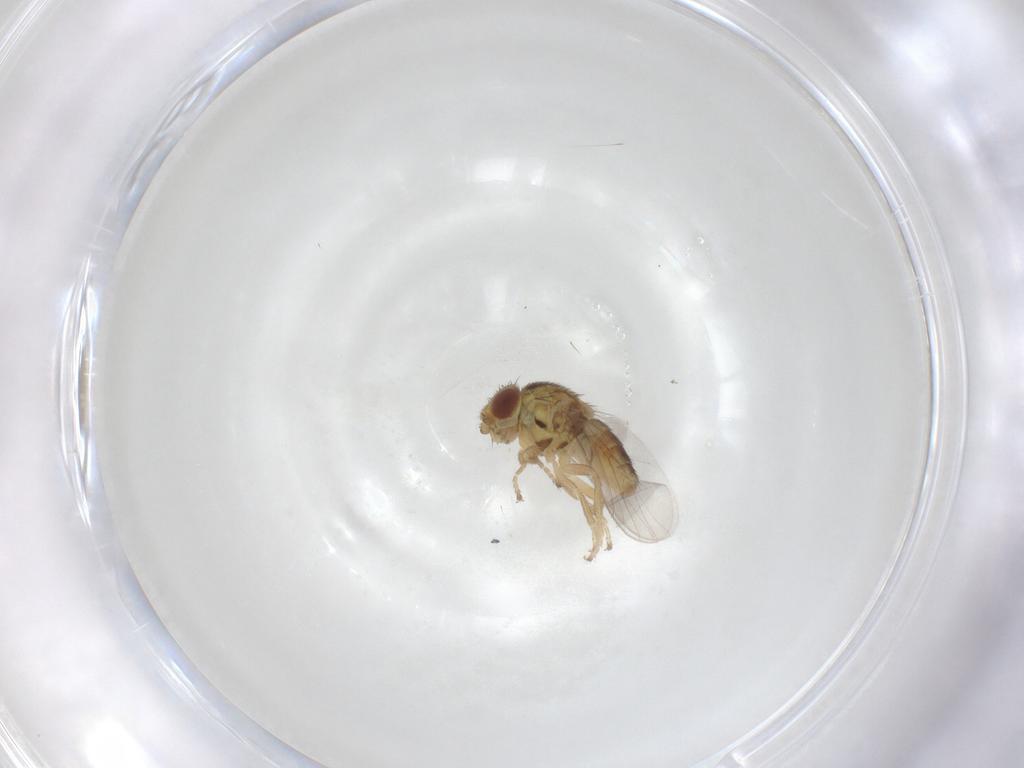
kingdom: Animalia
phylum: Arthropoda
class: Insecta
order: Diptera
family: Chloropidae
